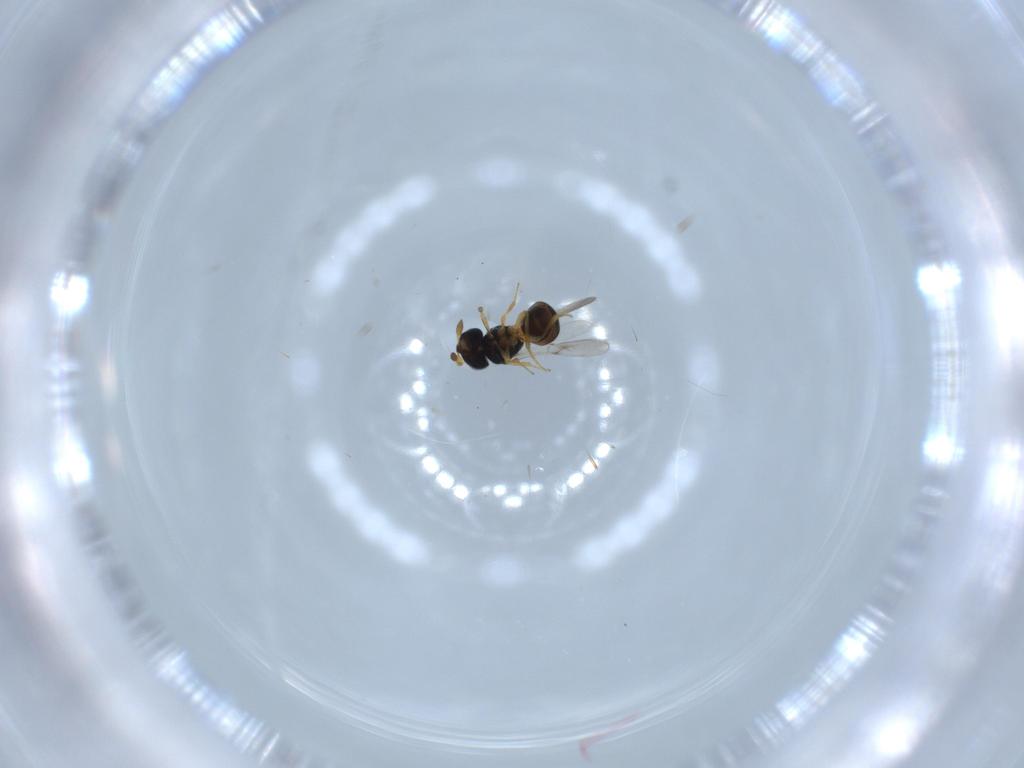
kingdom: Animalia
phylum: Arthropoda
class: Insecta
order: Hymenoptera
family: Scelionidae
